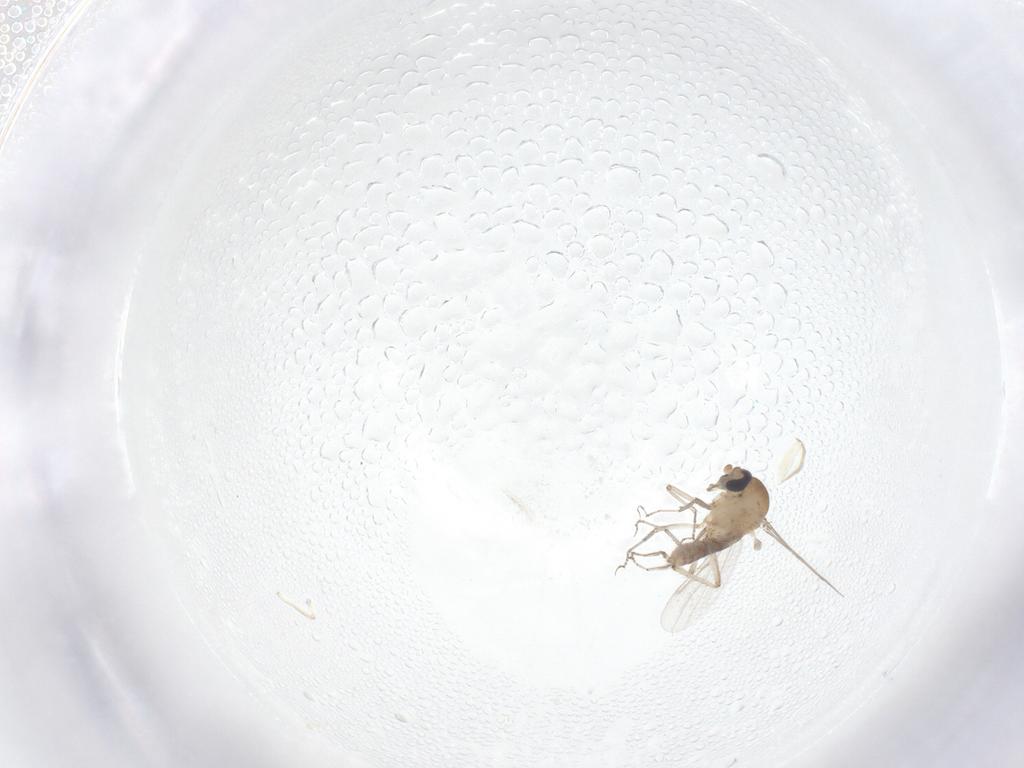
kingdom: Animalia
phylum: Arthropoda
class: Insecta
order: Diptera
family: Ceratopogonidae
